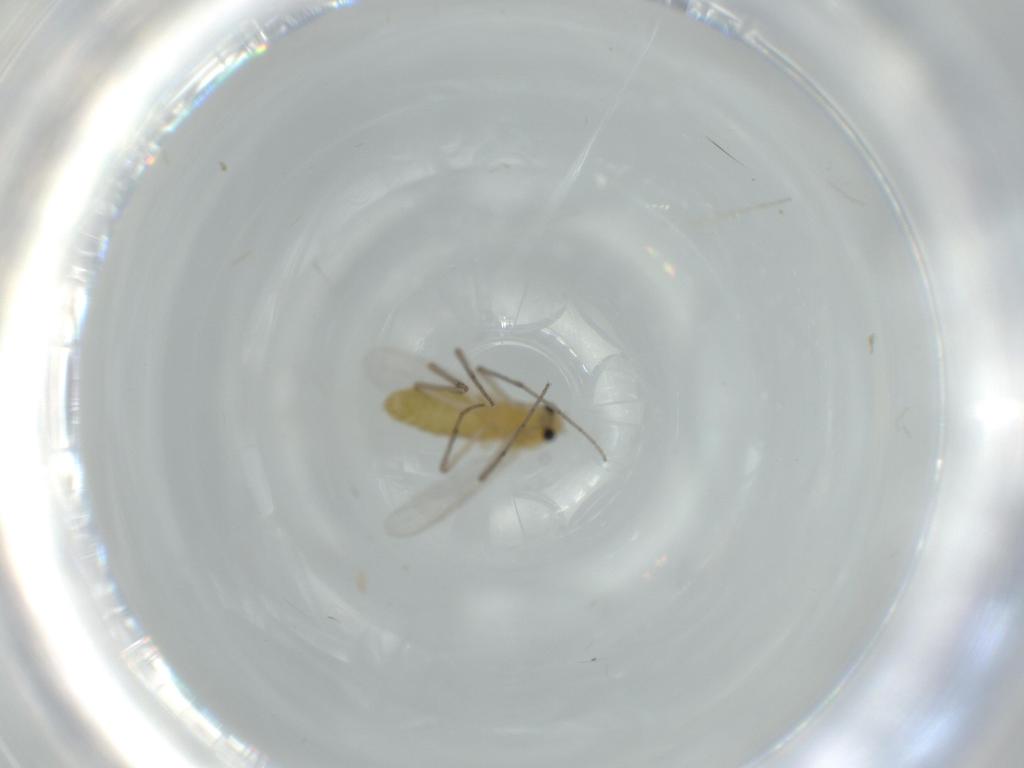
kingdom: Animalia
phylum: Arthropoda
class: Insecta
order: Diptera
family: Chironomidae
